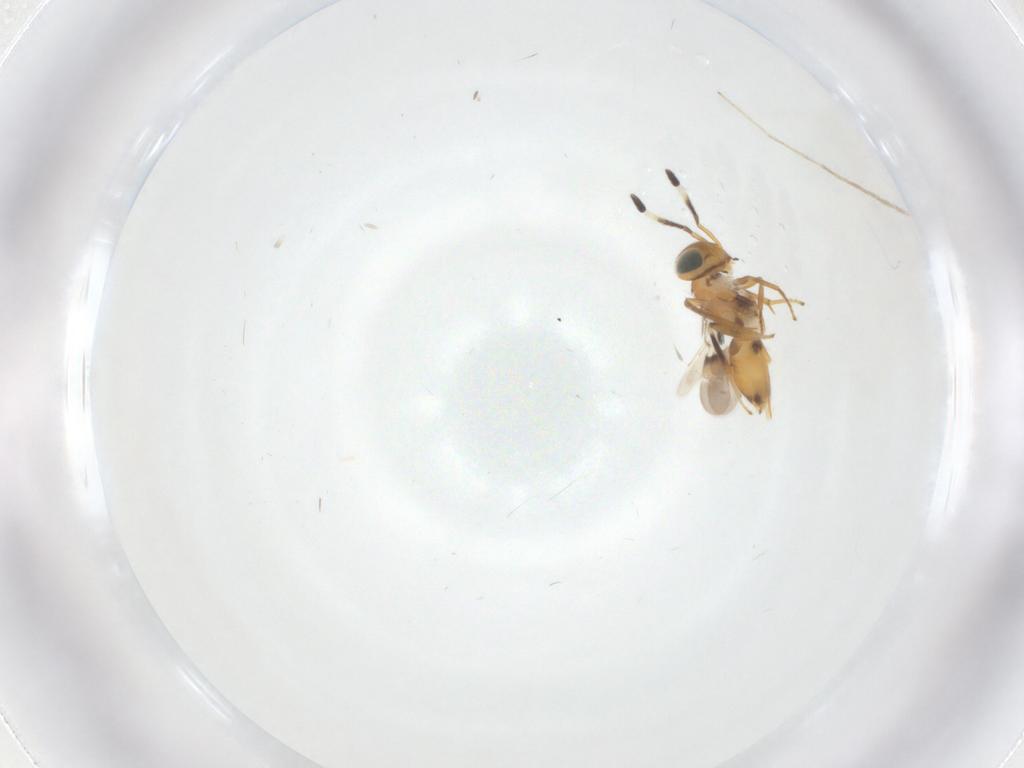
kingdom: Animalia
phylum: Arthropoda
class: Insecta
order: Hymenoptera
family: Encyrtidae
